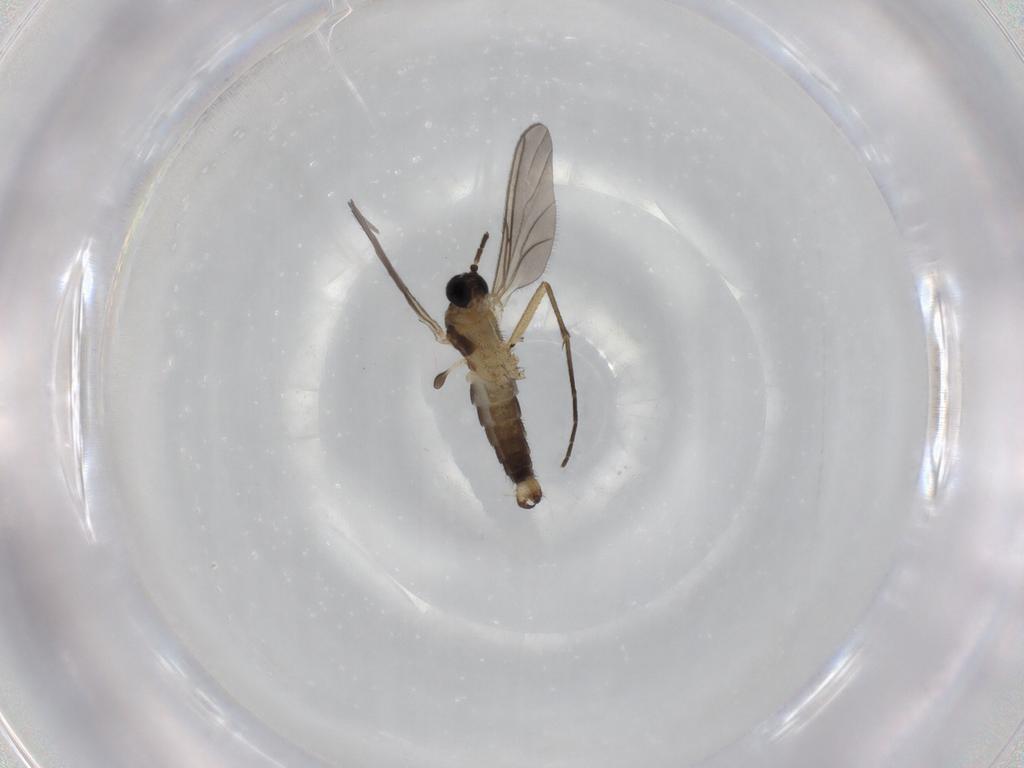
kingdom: Animalia
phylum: Arthropoda
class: Insecta
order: Diptera
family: Sciaridae
